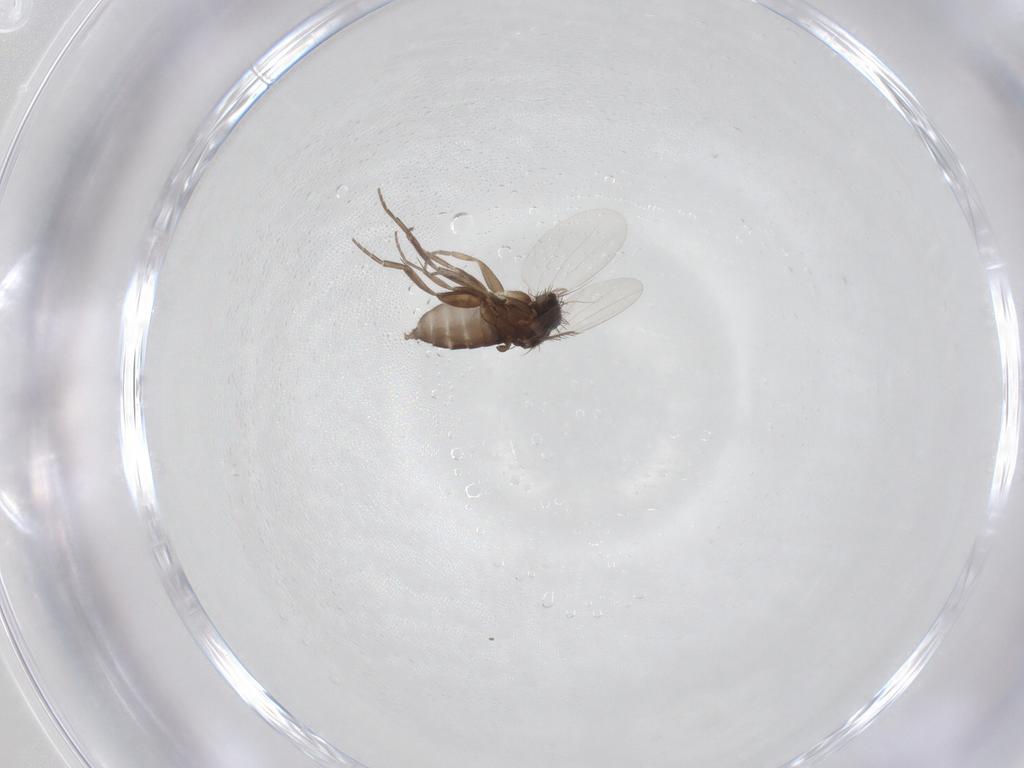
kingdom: Animalia
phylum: Arthropoda
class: Insecta
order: Diptera
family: Phoridae
